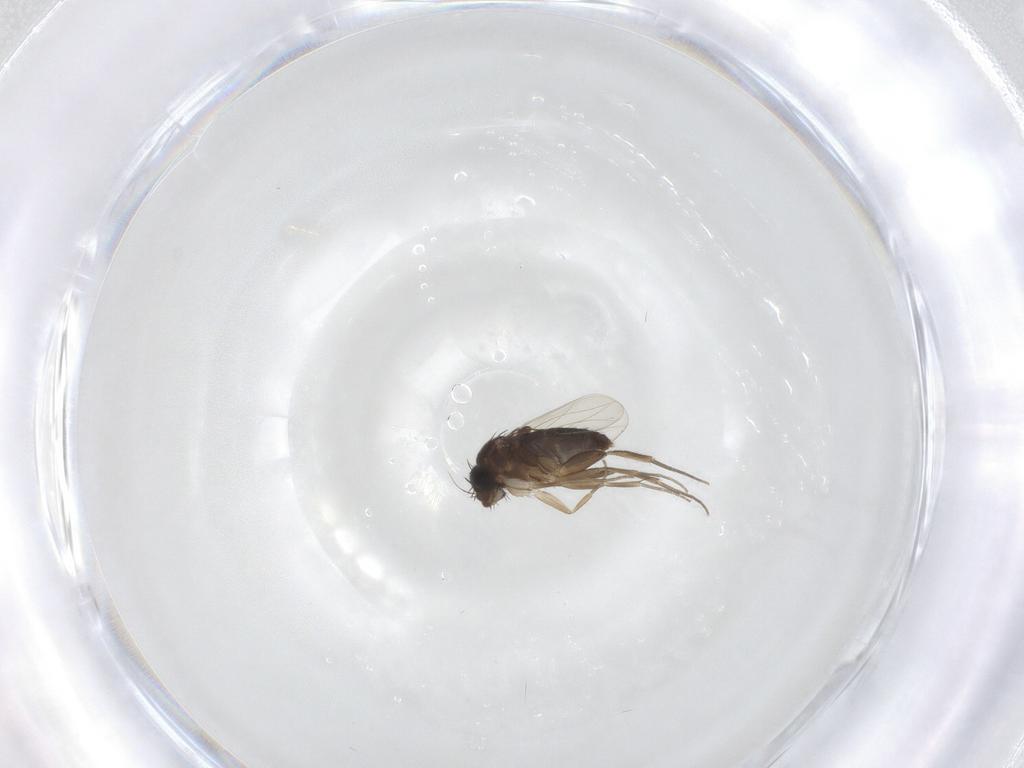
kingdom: Animalia
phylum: Arthropoda
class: Insecta
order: Diptera
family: Phoridae
